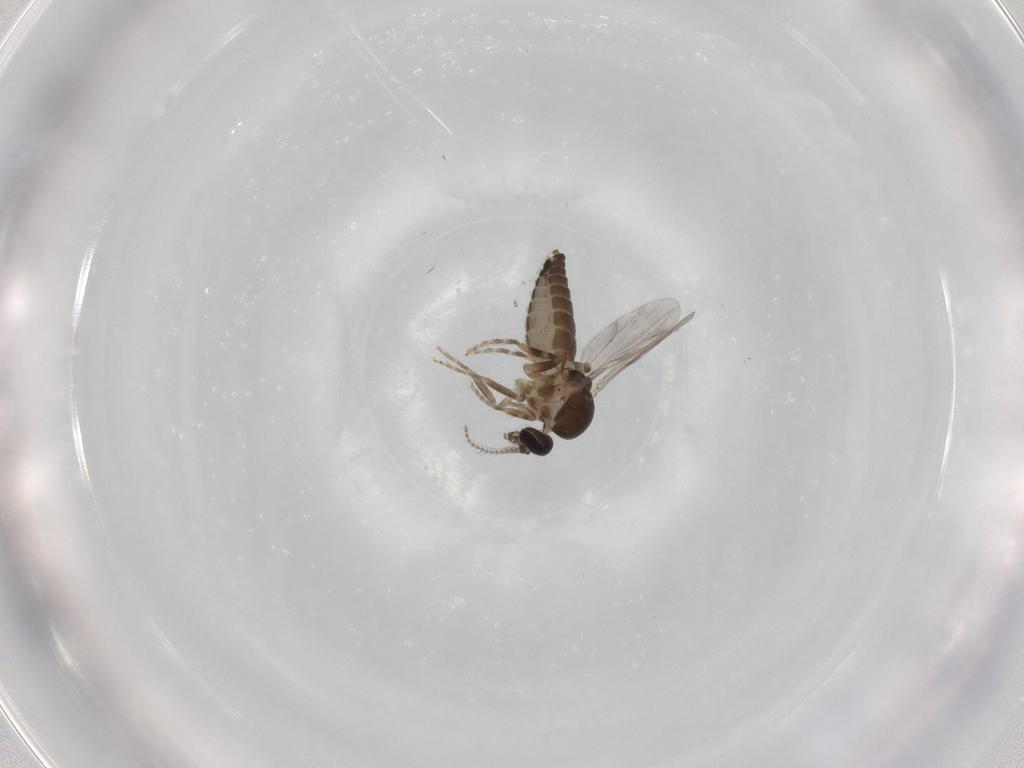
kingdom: Animalia
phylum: Arthropoda
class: Insecta
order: Diptera
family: Ceratopogonidae
